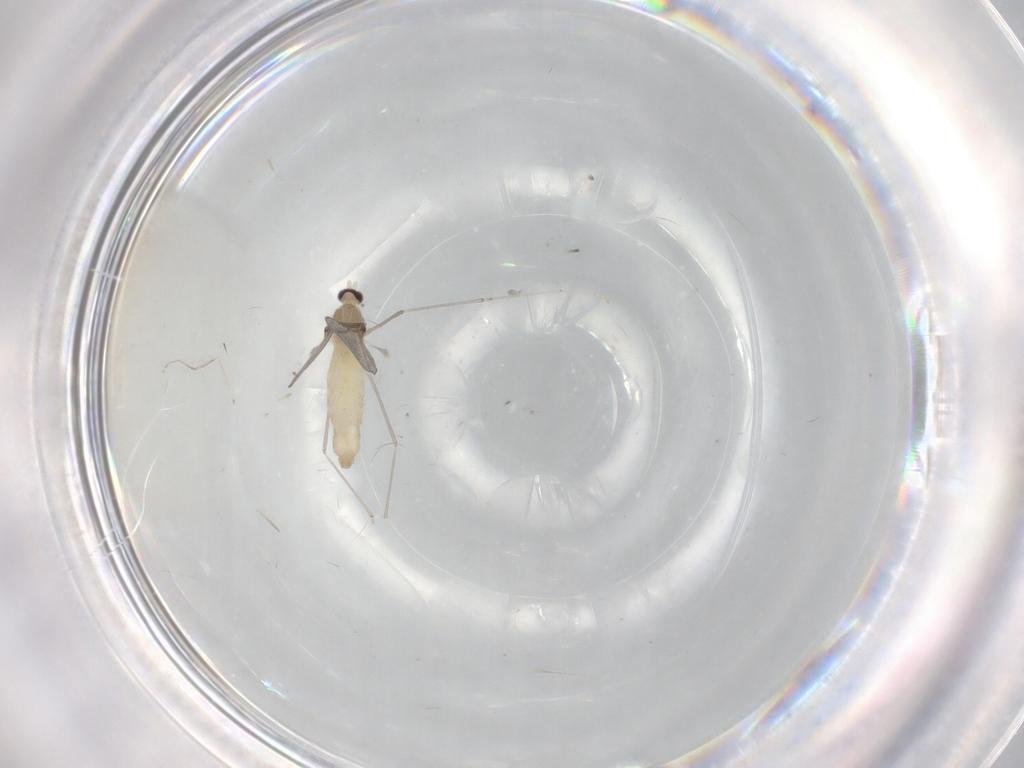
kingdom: Animalia
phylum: Arthropoda
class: Insecta
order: Diptera
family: Cecidomyiidae
